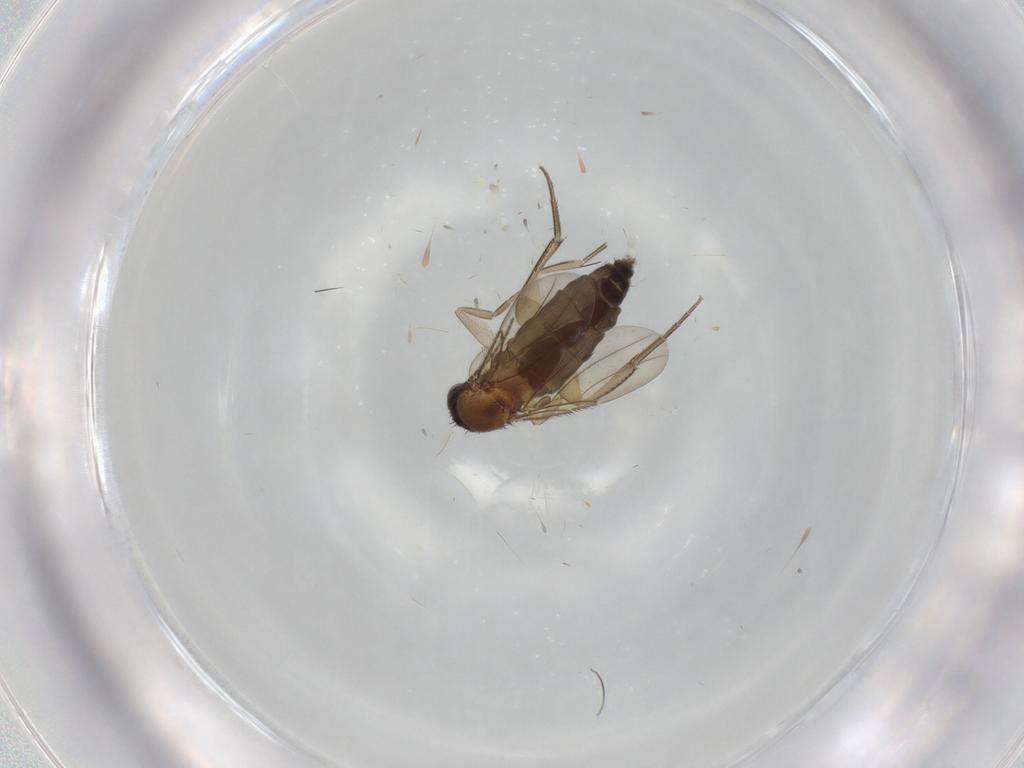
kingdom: Animalia
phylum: Arthropoda
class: Insecta
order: Diptera
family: Phoridae
